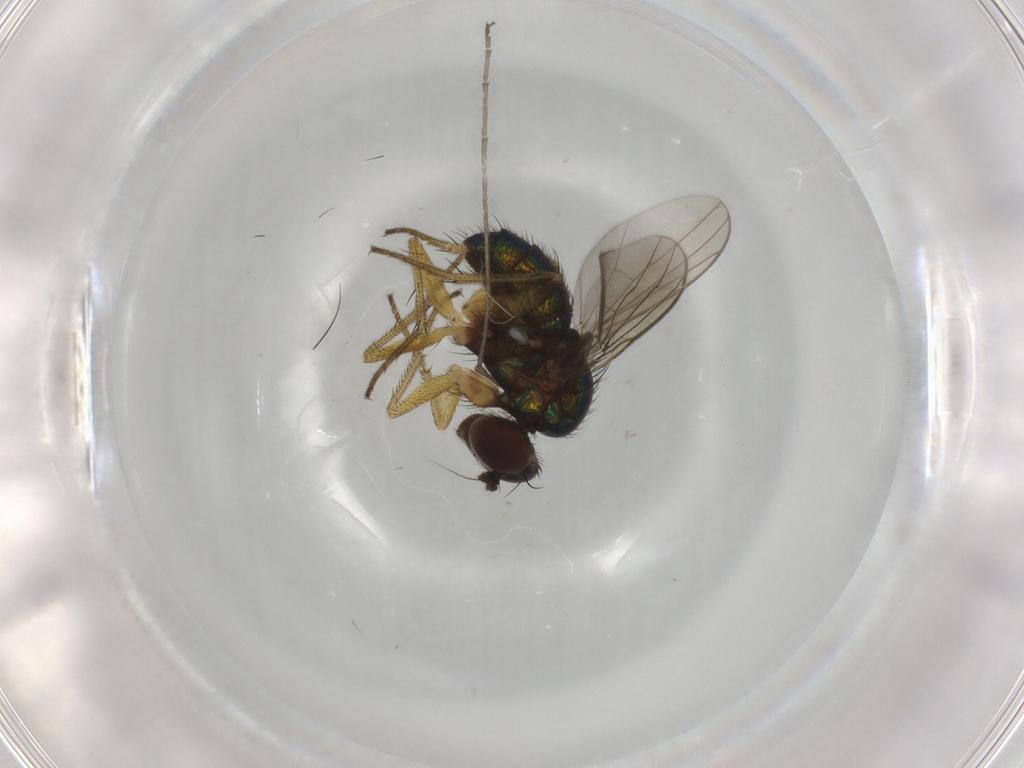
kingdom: Animalia
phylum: Arthropoda
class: Insecta
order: Diptera
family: Dolichopodidae
